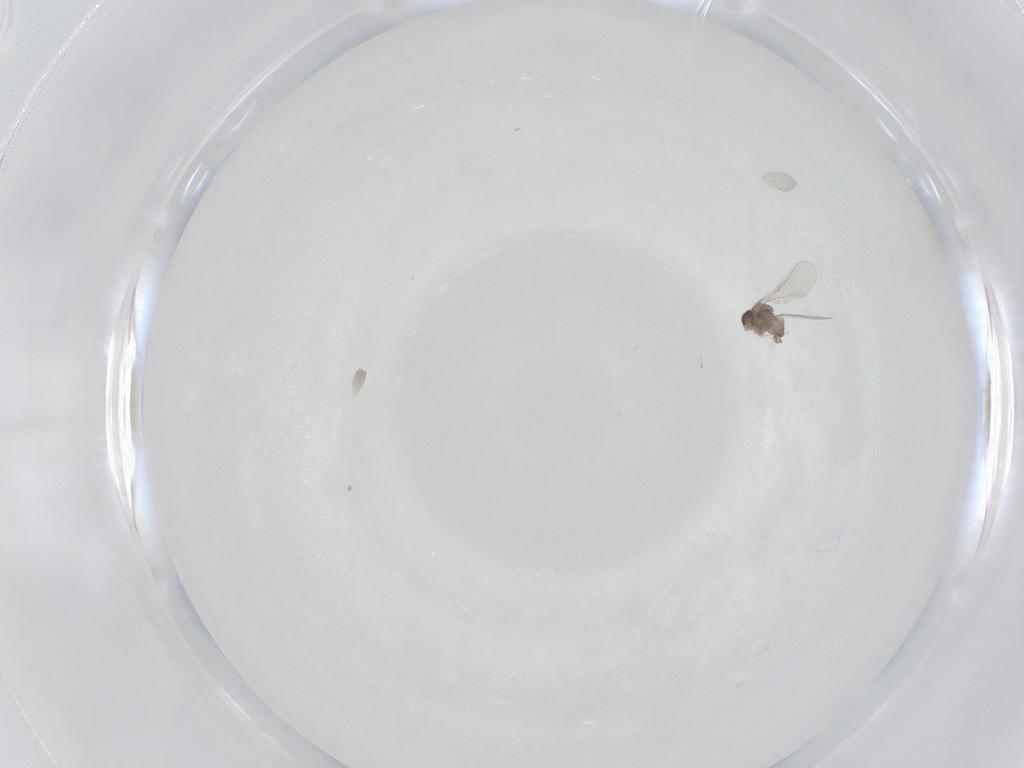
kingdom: Animalia
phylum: Arthropoda
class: Insecta
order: Diptera
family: Cecidomyiidae
